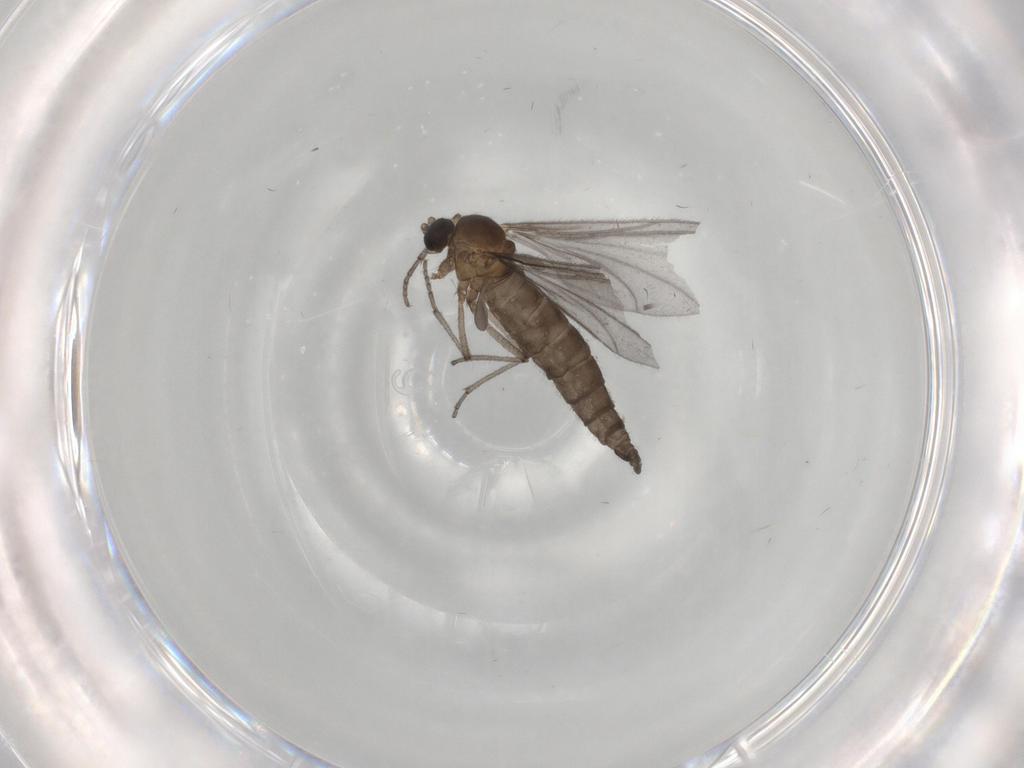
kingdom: Animalia
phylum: Arthropoda
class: Insecta
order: Diptera
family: Sciaridae
